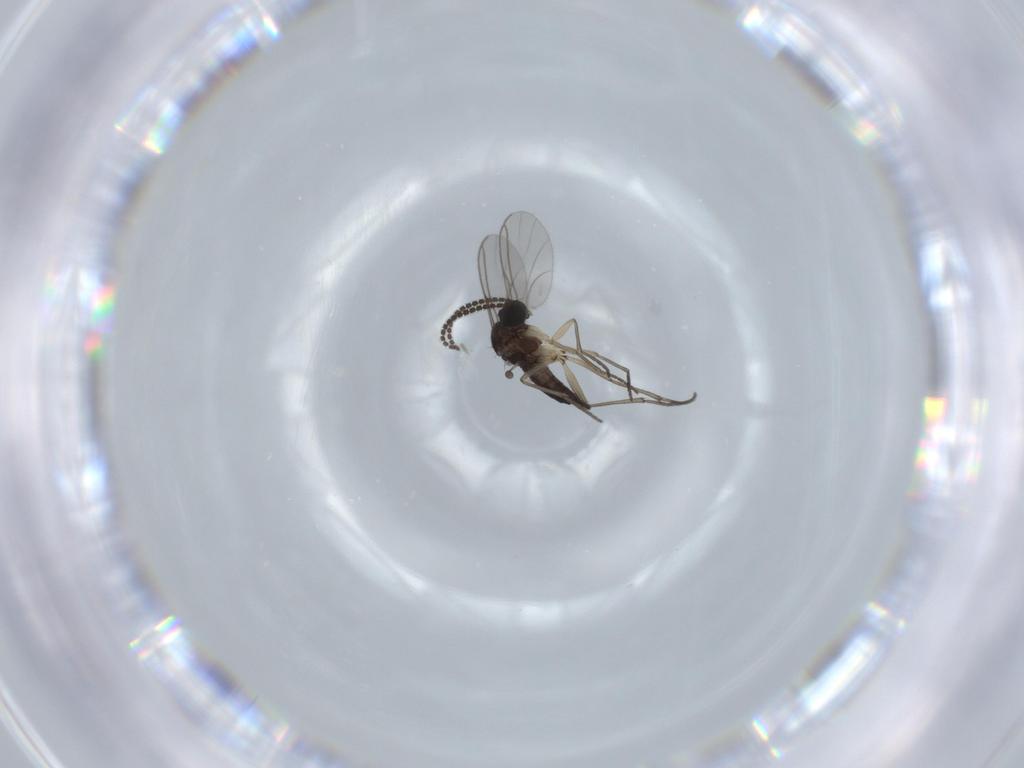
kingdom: Animalia
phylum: Arthropoda
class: Insecta
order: Diptera
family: Sciaridae
